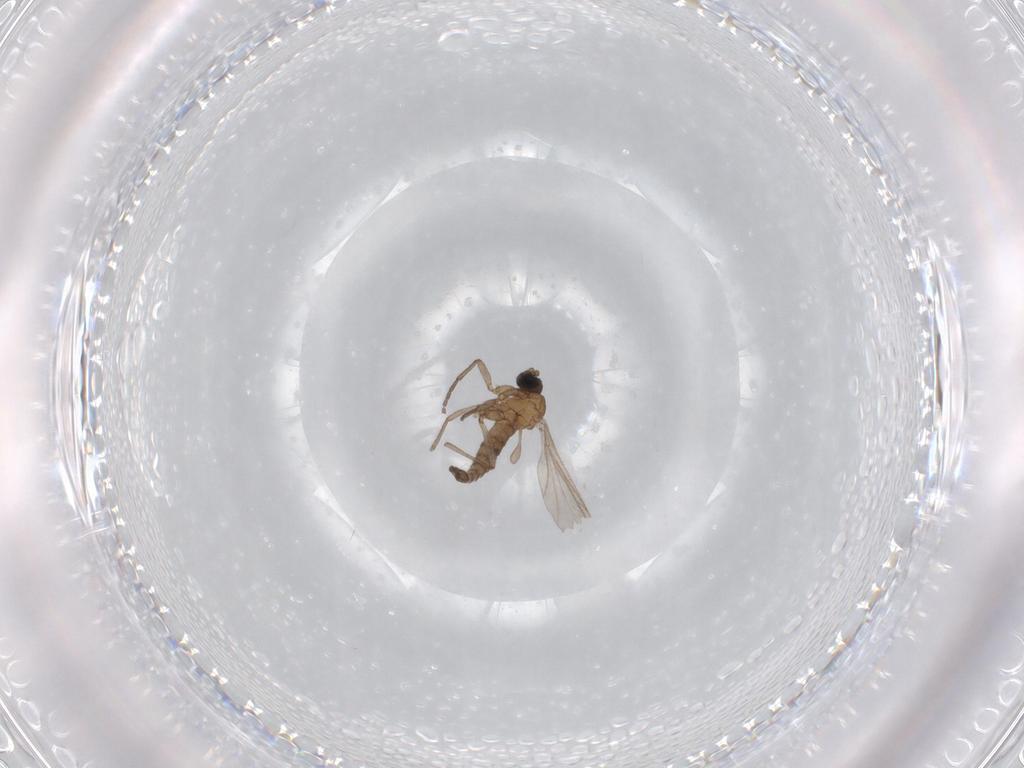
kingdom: Animalia
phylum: Arthropoda
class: Insecta
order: Diptera
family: Sciaridae
